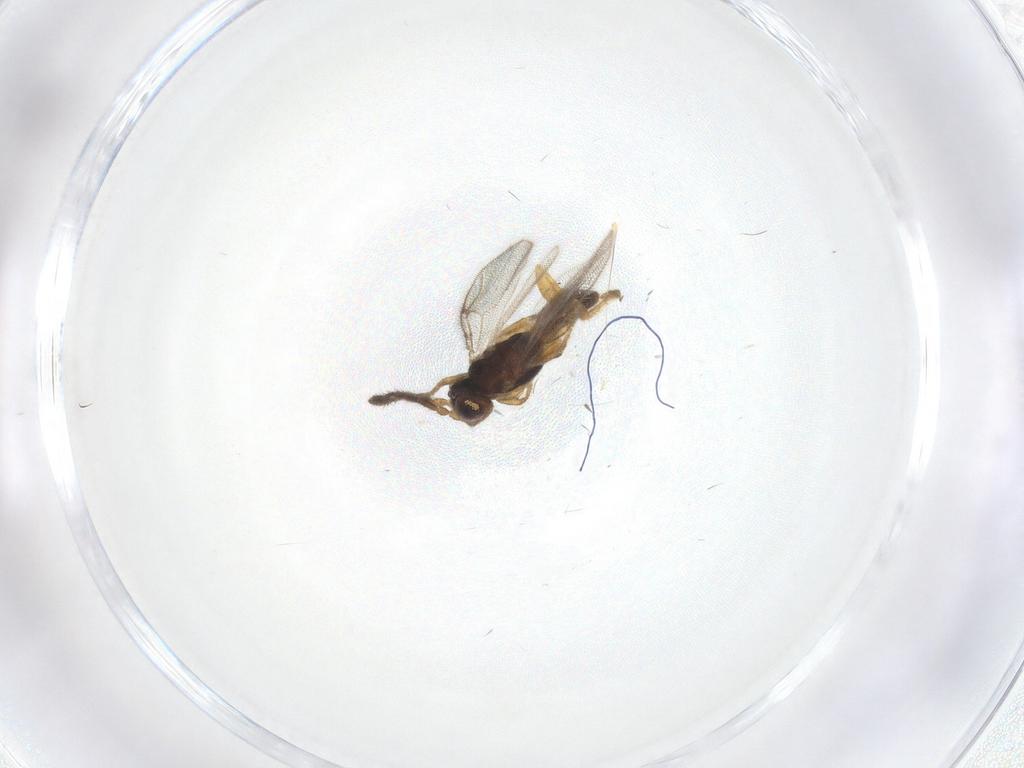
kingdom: Animalia
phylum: Arthropoda
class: Insecta
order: Hymenoptera
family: Dryinidae
